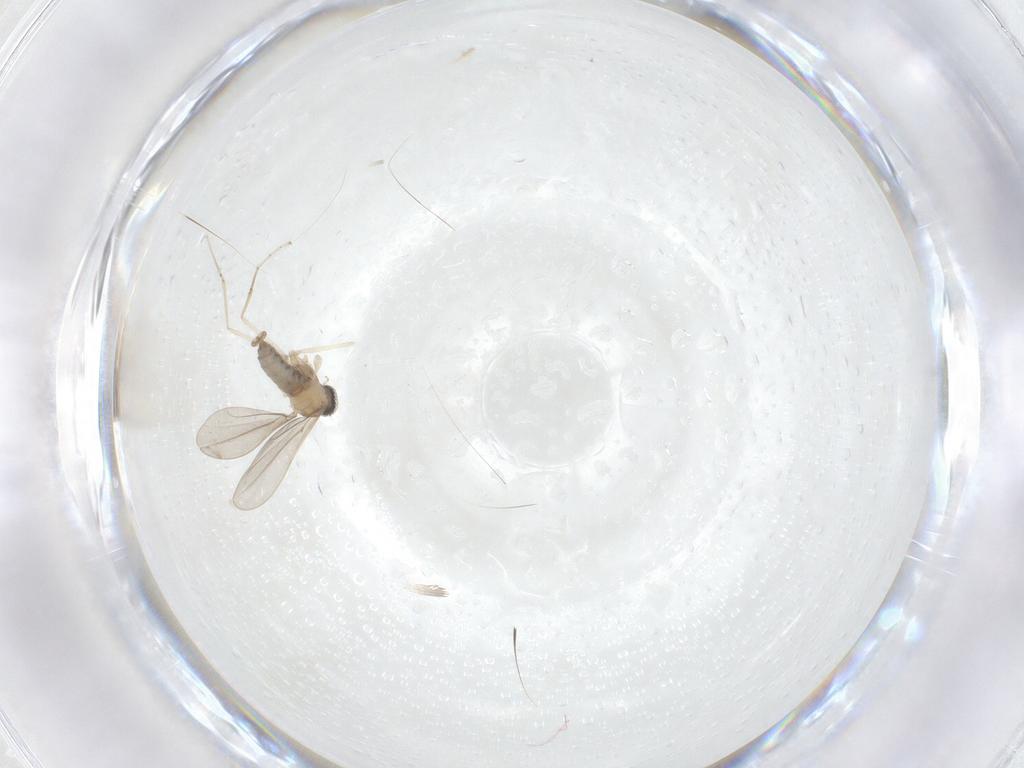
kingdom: Animalia
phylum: Arthropoda
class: Insecta
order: Diptera
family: Cecidomyiidae
